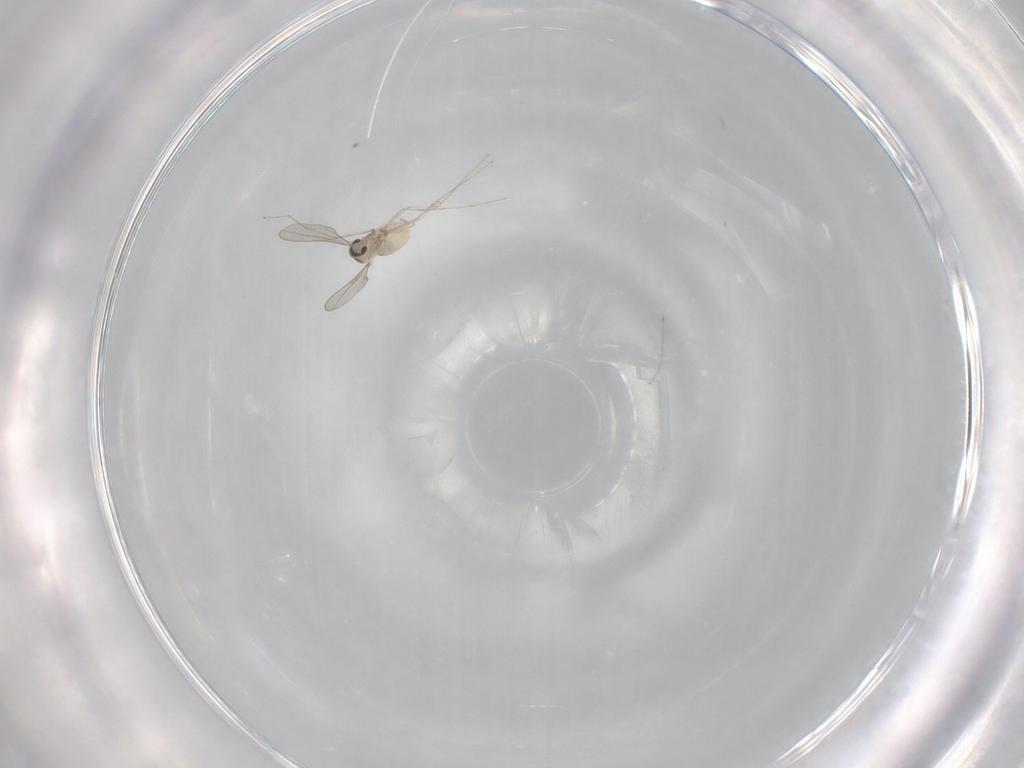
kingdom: Animalia
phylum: Arthropoda
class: Insecta
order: Diptera
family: Cecidomyiidae
